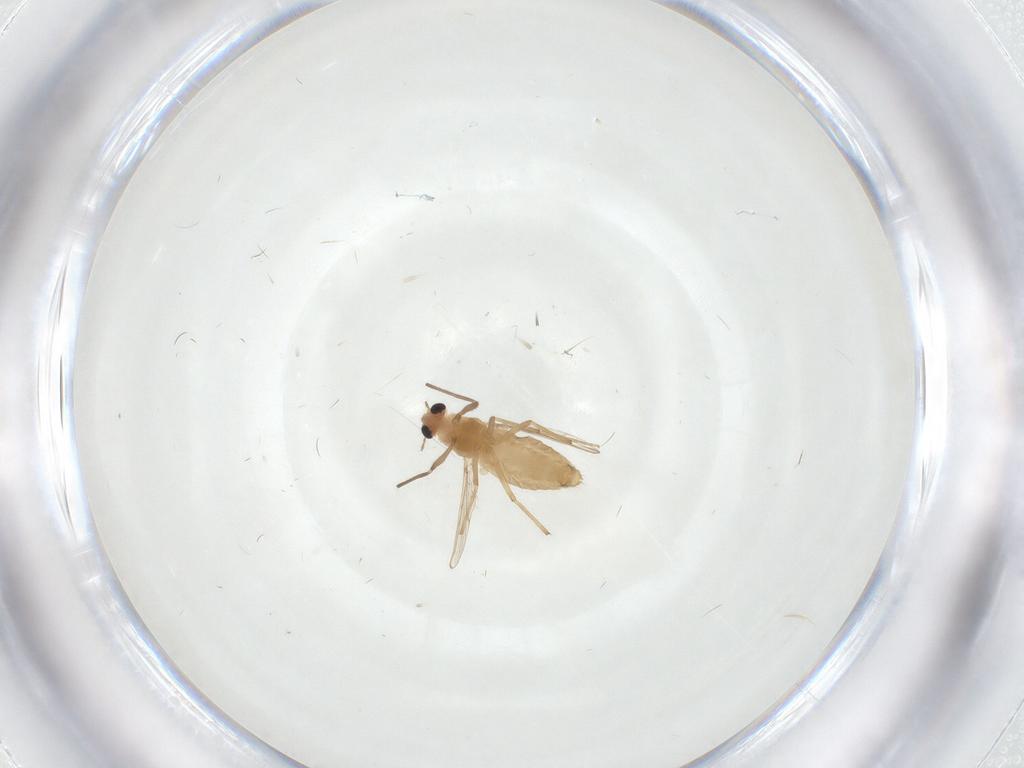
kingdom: Animalia
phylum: Arthropoda
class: Insecta
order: Diptera
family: Chironomidae
